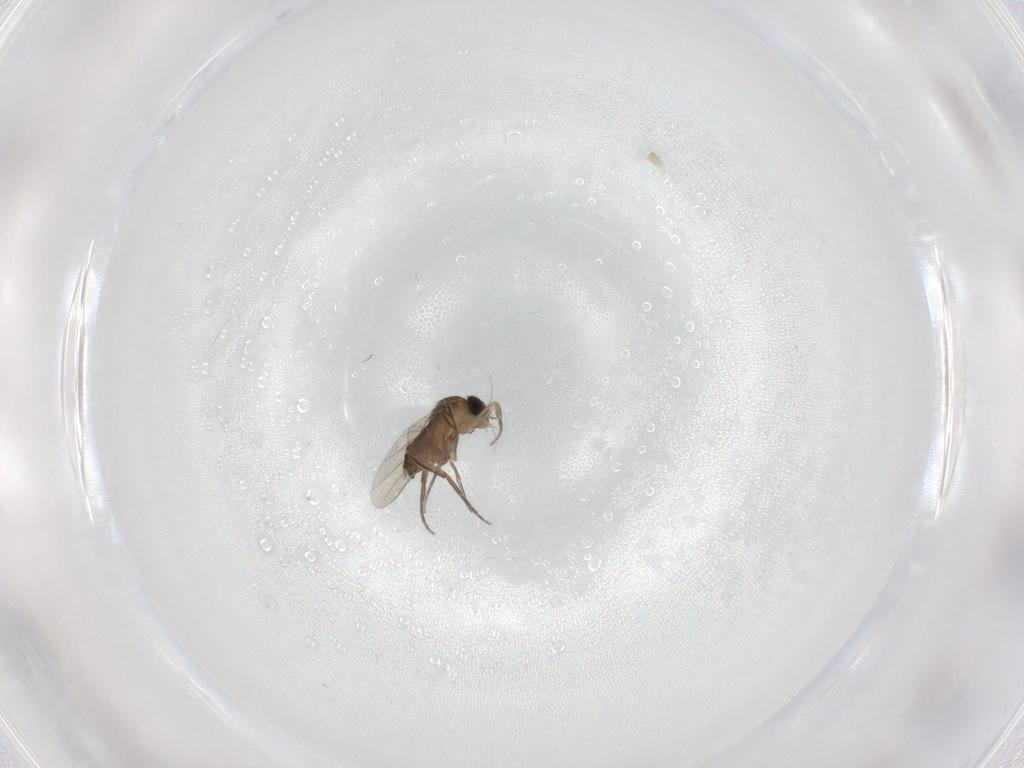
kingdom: Animalia
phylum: Arthropoda
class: Insecta
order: Diptera
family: Phoridae
